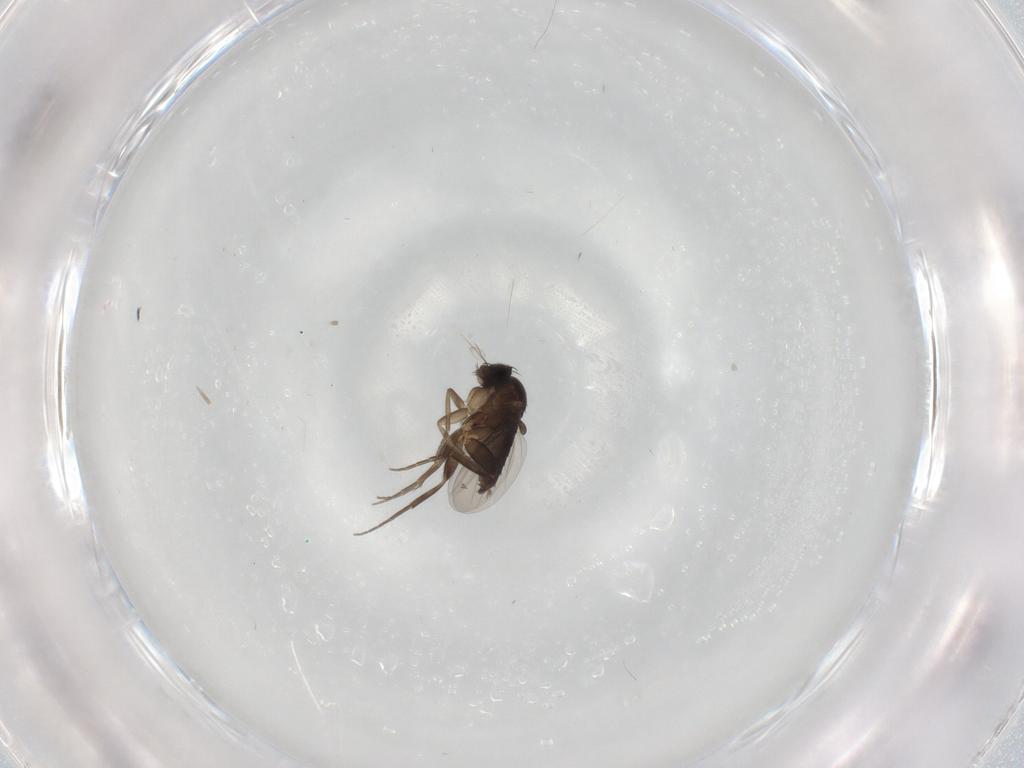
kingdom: Animalia
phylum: Arthropoda
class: Insecta
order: Diptera
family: Phoridae
